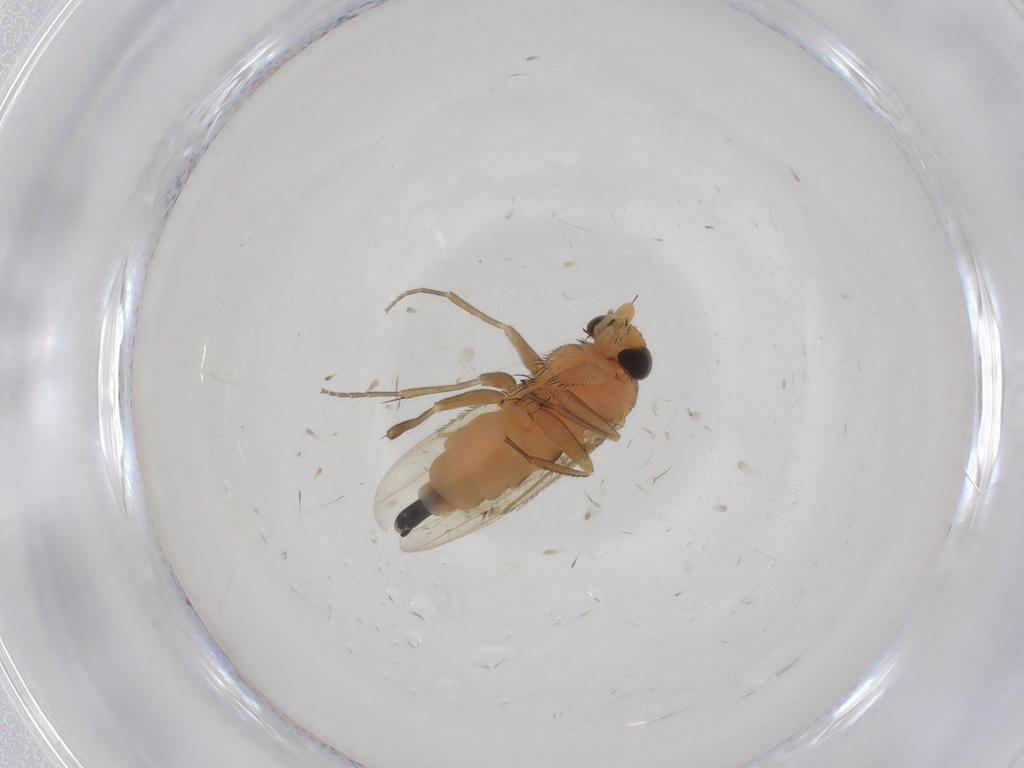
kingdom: Animalia
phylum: Arthropoda
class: Insecta
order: Diptera
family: Phoridae
